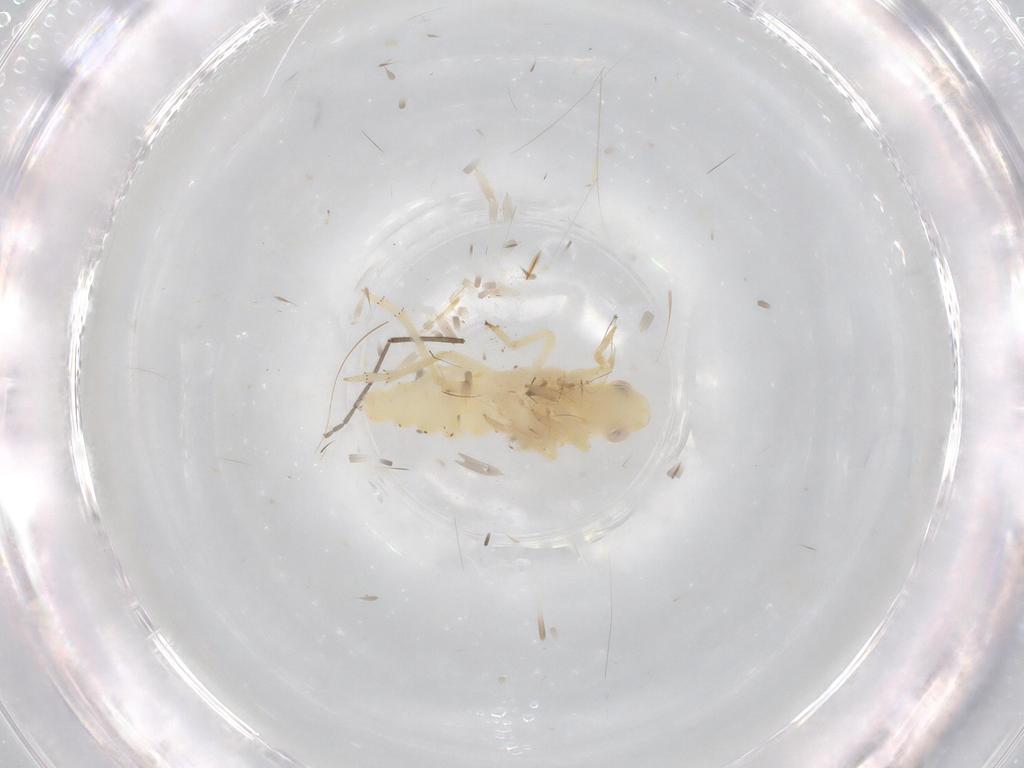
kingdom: Animalia
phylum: Arthropoda
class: Insecta
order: Hemiptera
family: Tropiduchidae
